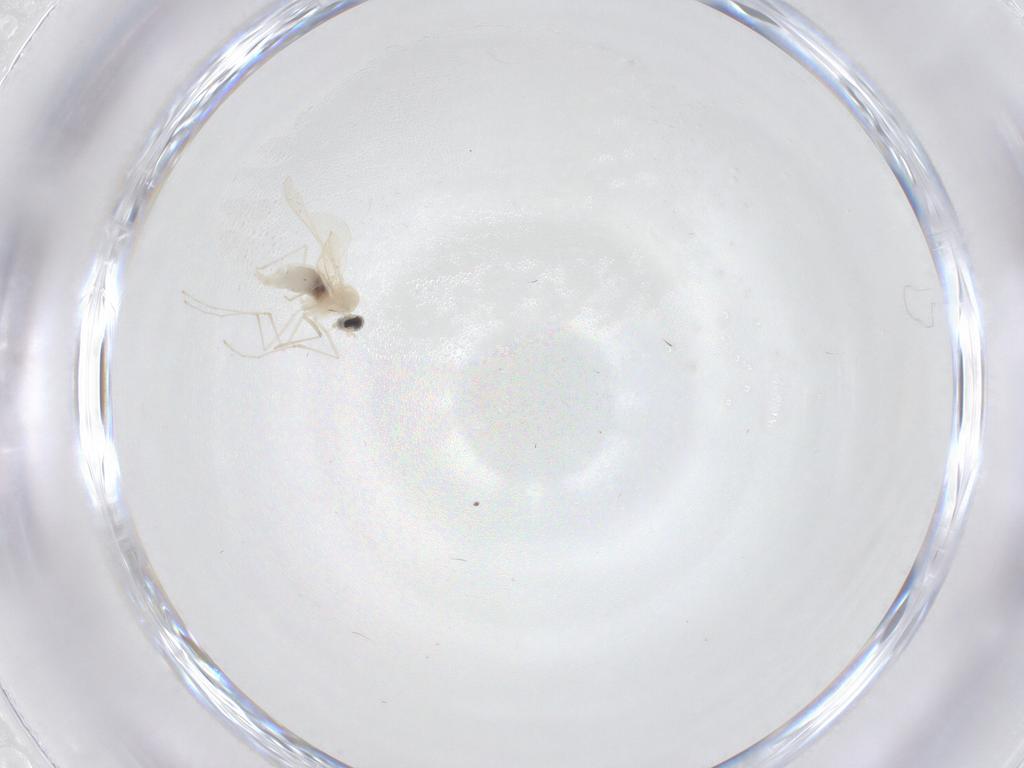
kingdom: Animalia
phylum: Arthropoda
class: Insecta
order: Diptera
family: Cecidomyiidae
